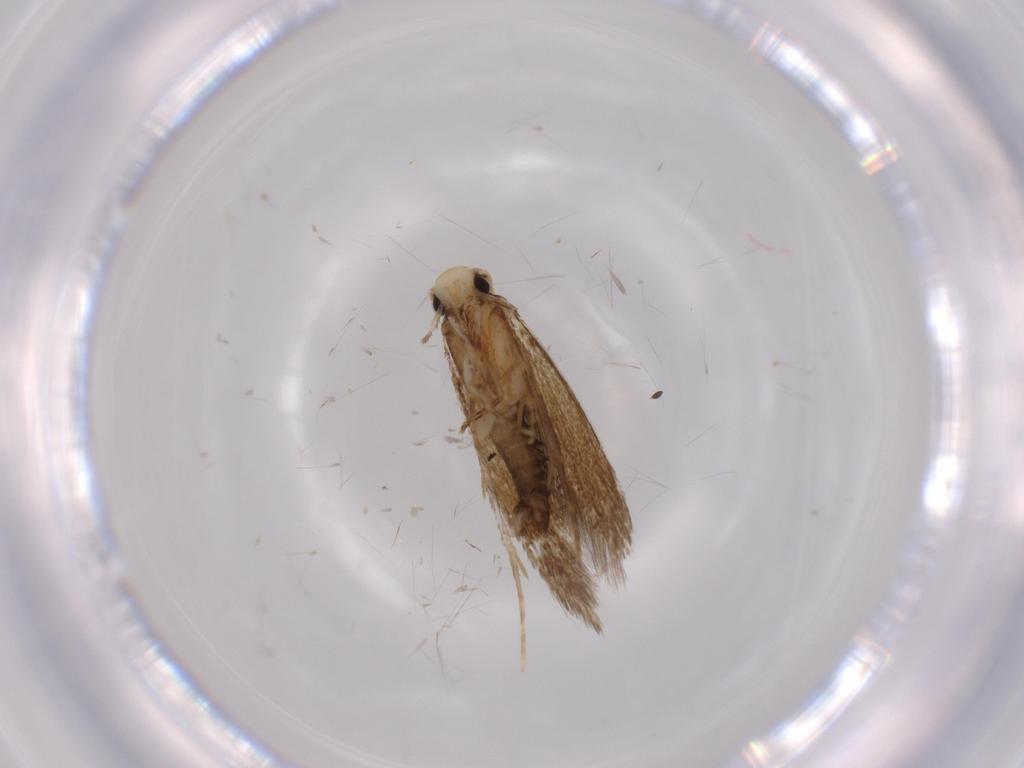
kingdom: Animalia
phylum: Arthropoda
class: Insecta
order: Lepidoptera
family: Tineidae
